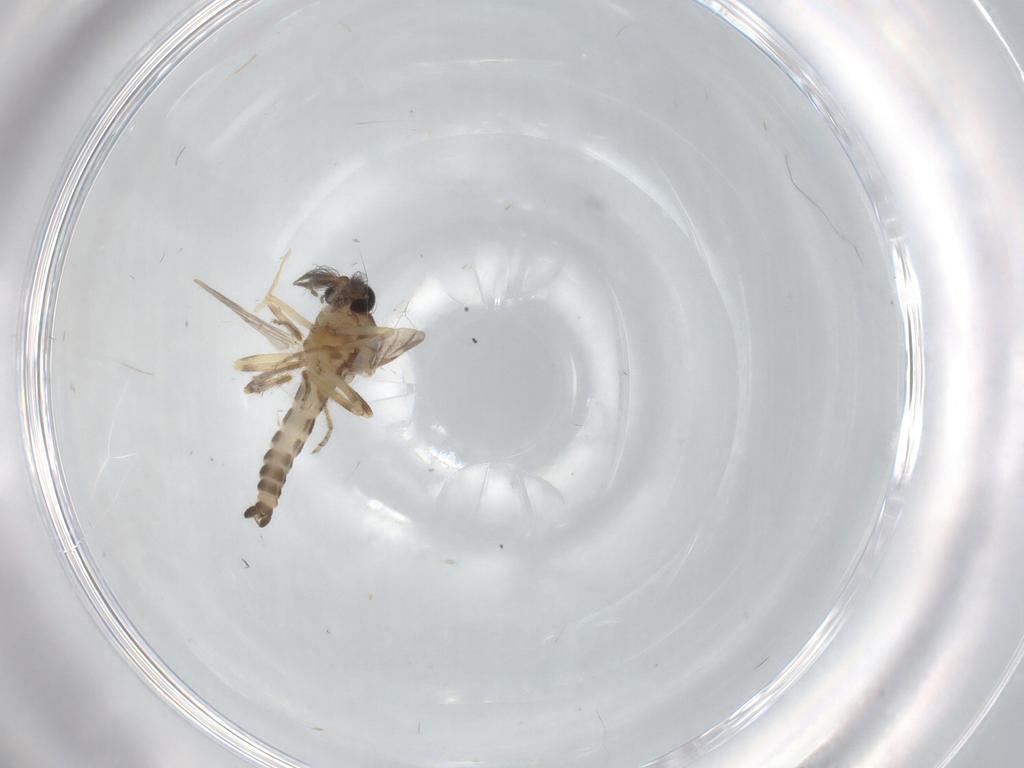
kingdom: Animalia
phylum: Arthropoda
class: Insecta
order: Diptera
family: Ceratopogonidae
